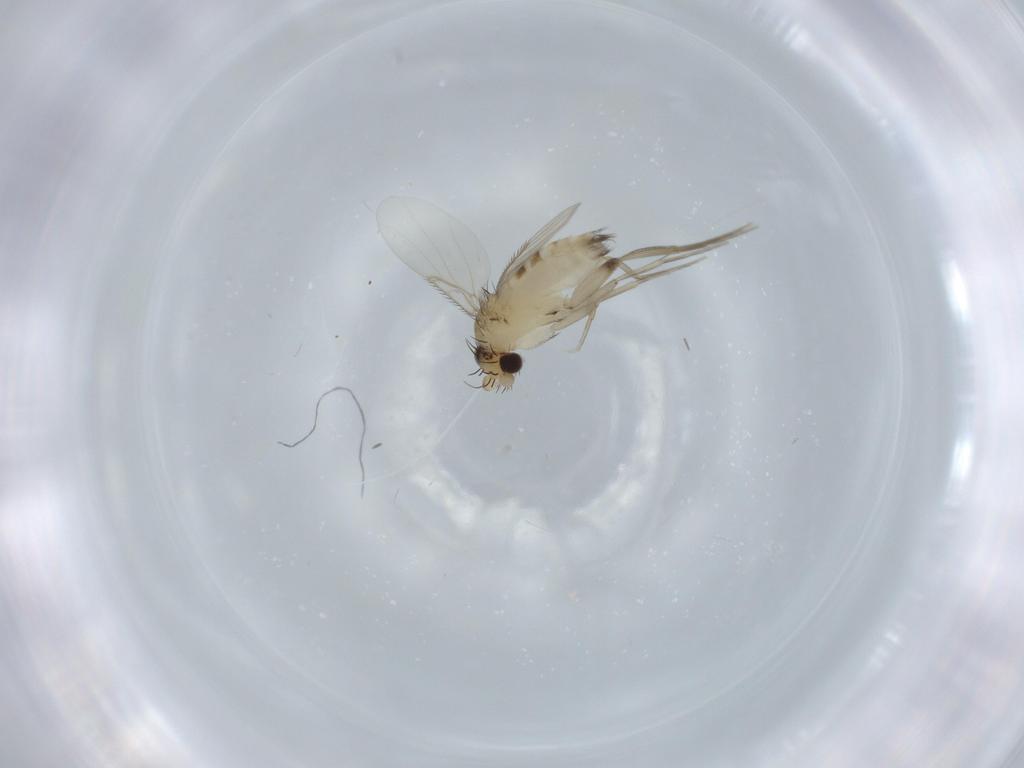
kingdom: Animalia
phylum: Arthropoda
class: Insecta
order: Diptera
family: Phoridae
